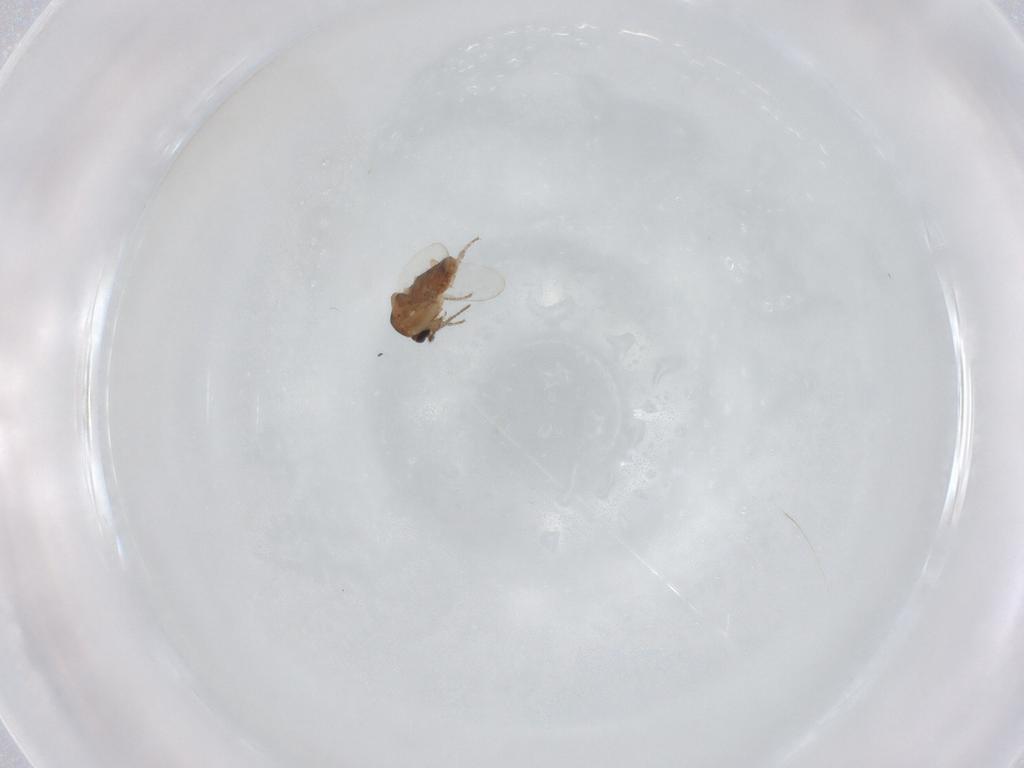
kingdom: Animalia
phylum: Arthropoda
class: Insecta
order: Diptera
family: Ceratopogonidae
